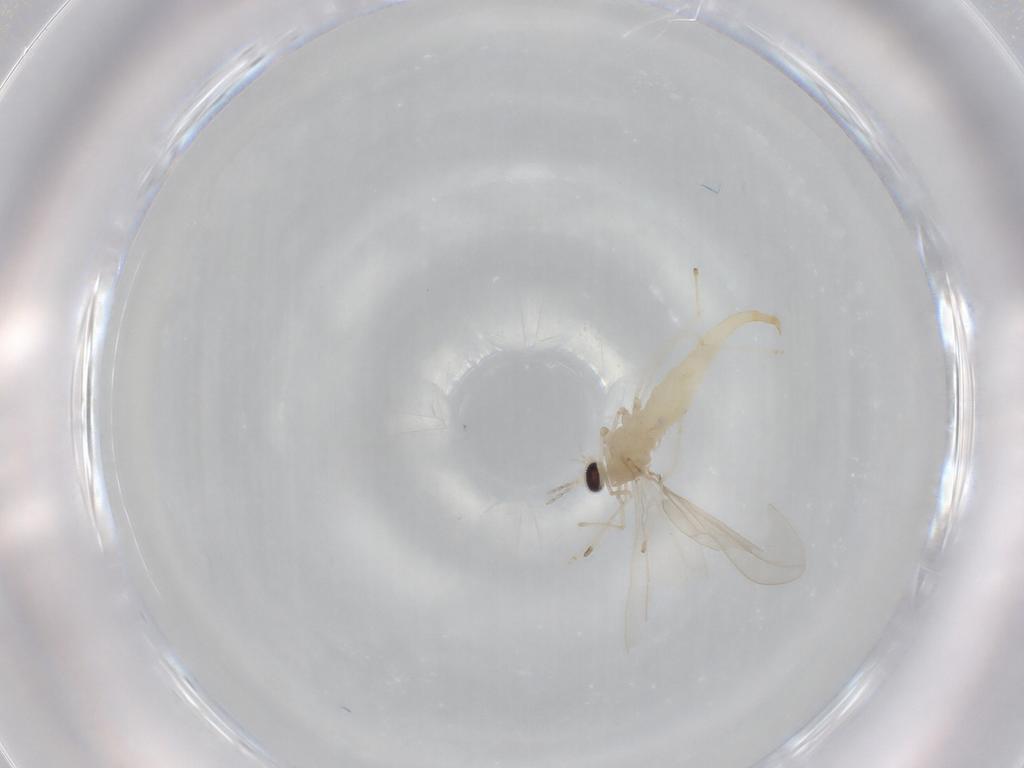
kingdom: Animalia
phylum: Arthropoda
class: Insecta
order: Diptera
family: Cecidomyiidae
